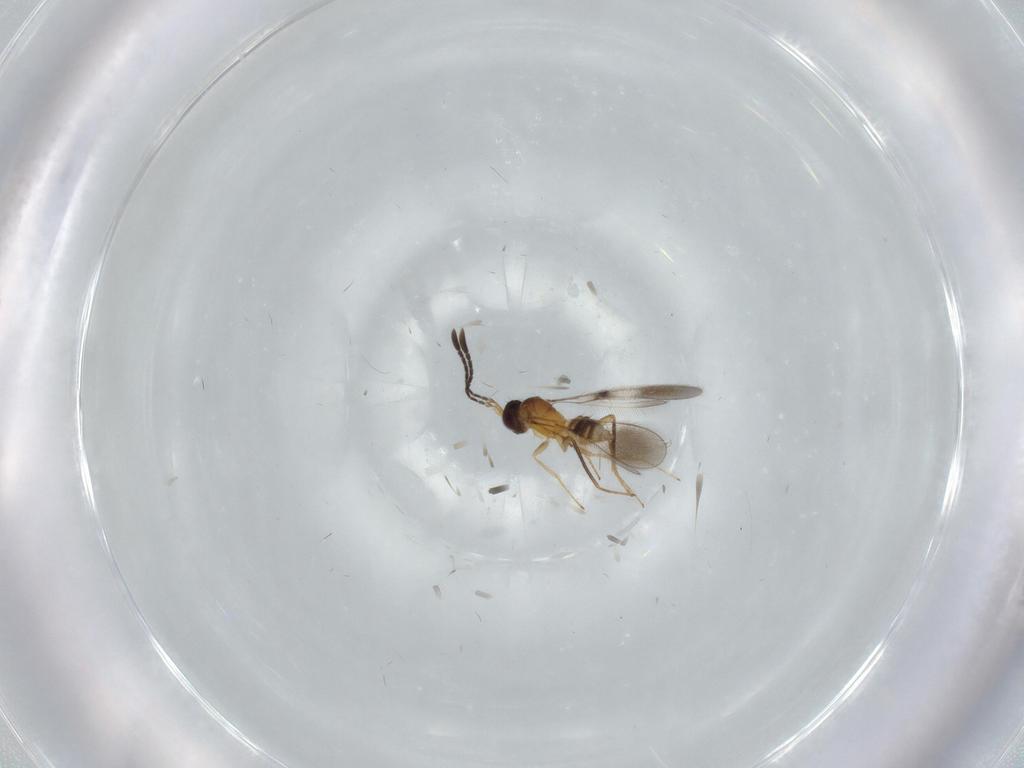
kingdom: Animalia
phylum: Arthropoda
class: Insecta
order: Hymenoptera
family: Mymaridae
